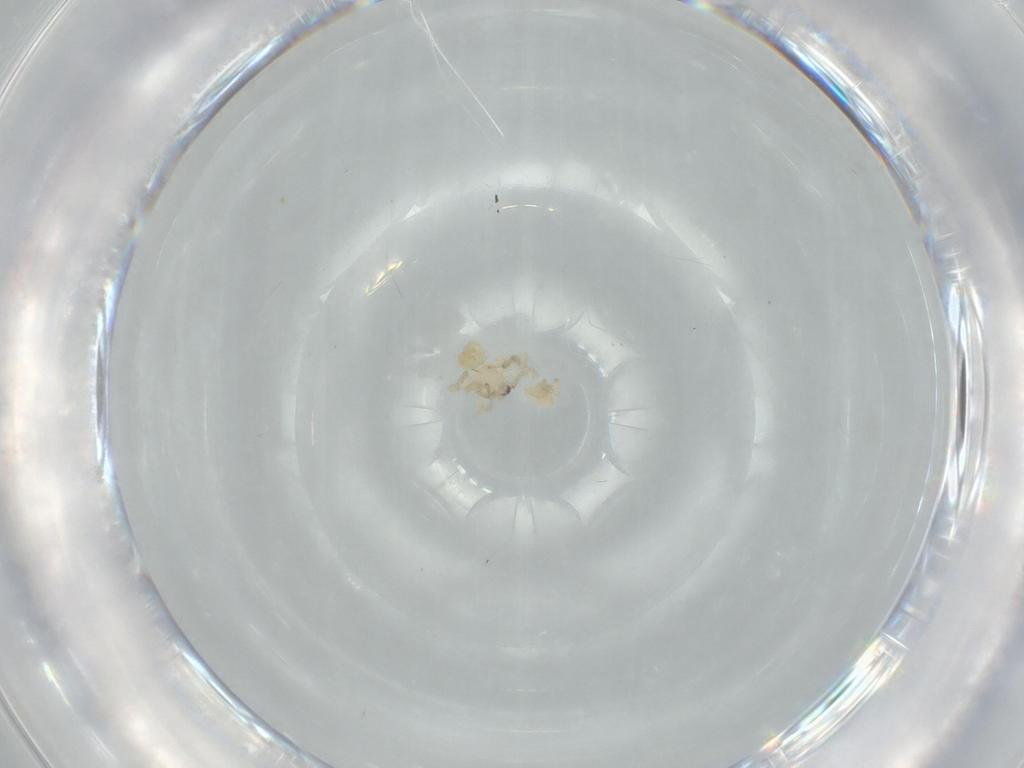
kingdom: Animalia
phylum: Arthropoda
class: Arachnida
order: Araneae
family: Oonopidae
